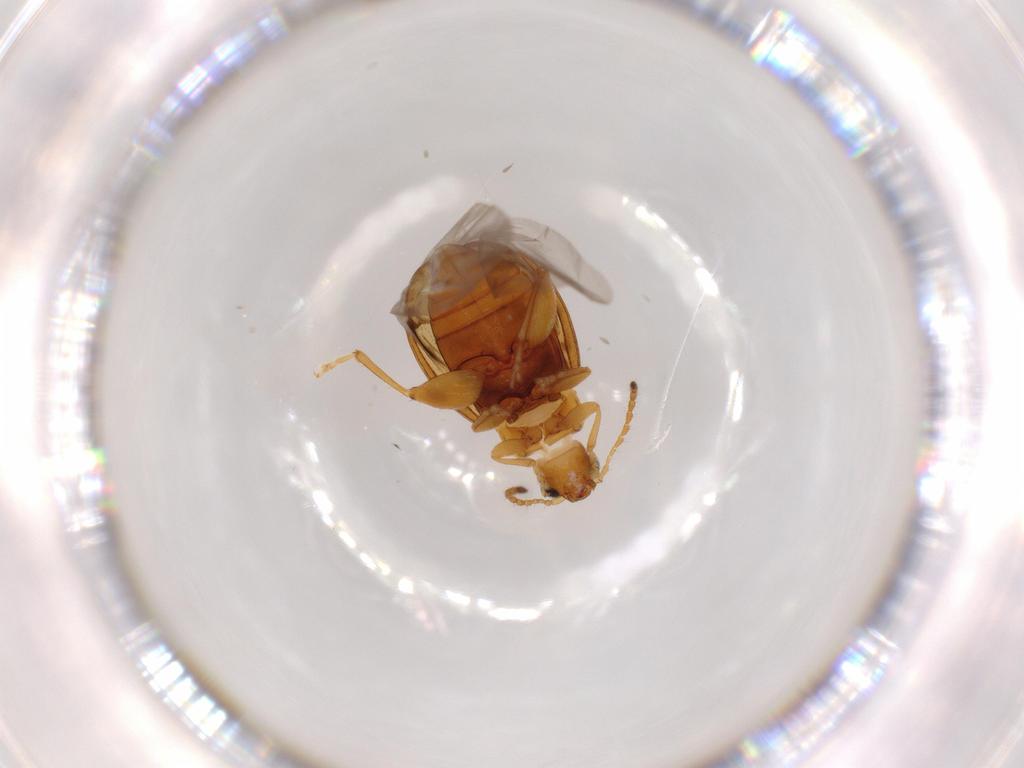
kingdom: Animalia
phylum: Arthropoda
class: Insecta
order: Coleoptera
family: Chrysomelidae
